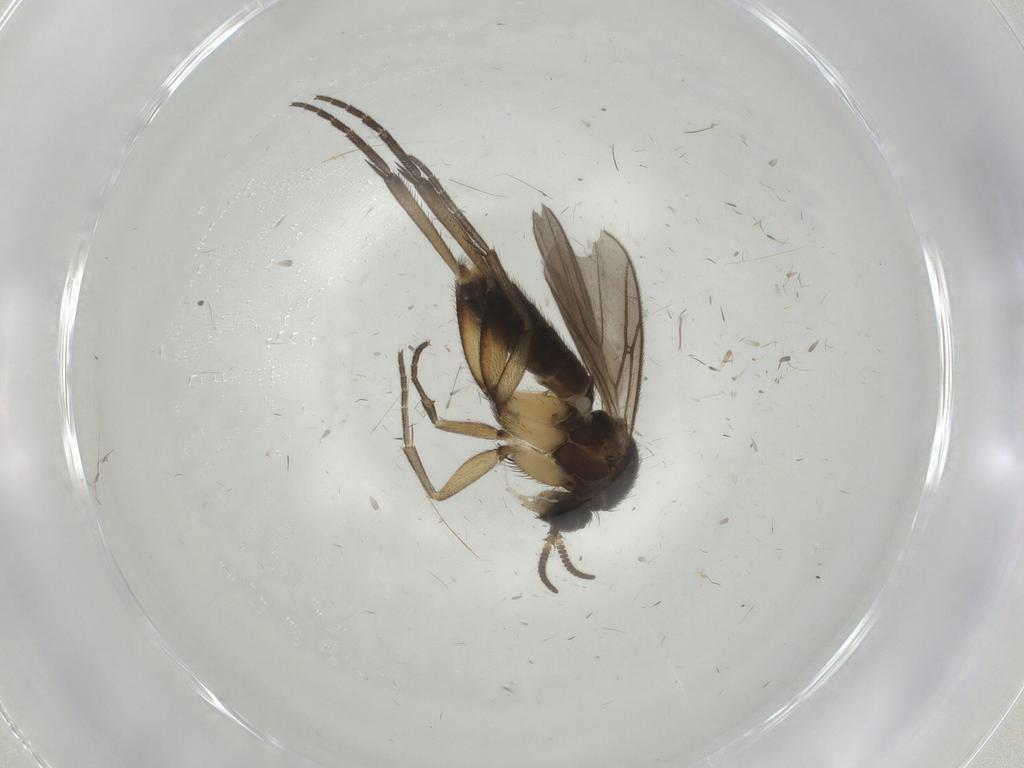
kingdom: Animalia
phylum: Arthropoda
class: Insecta
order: Diptera
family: Mycetophilidae
